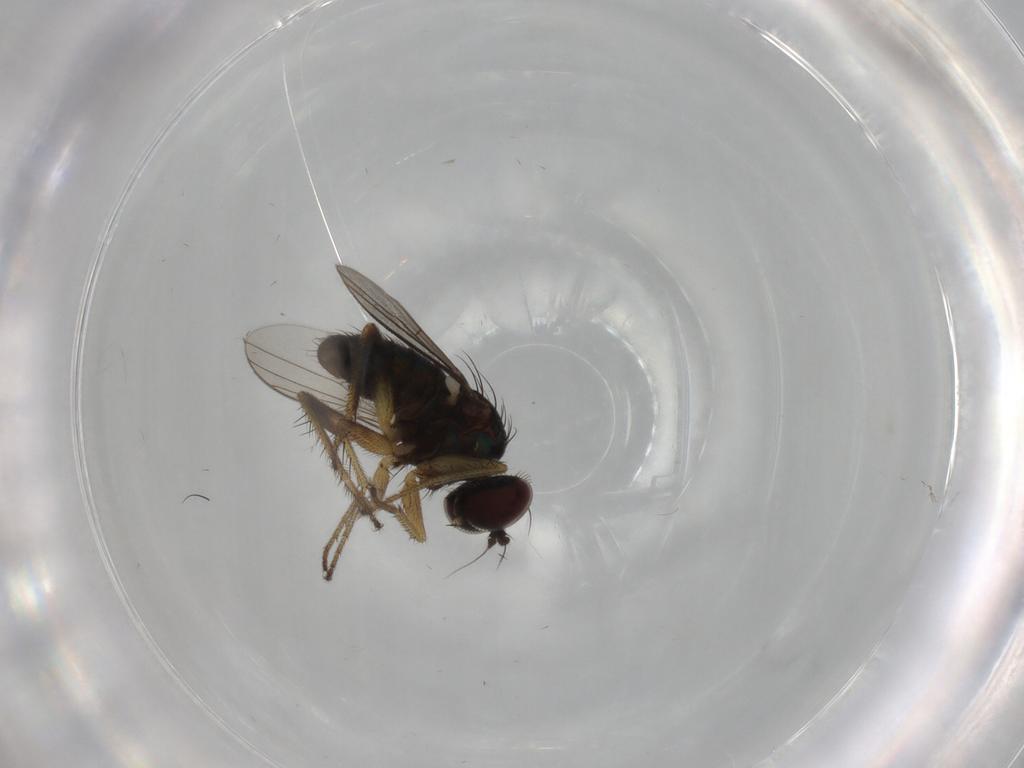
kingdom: Animalia
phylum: Arthropoda
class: Insecta
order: Diptera
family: Dolichopodidae
